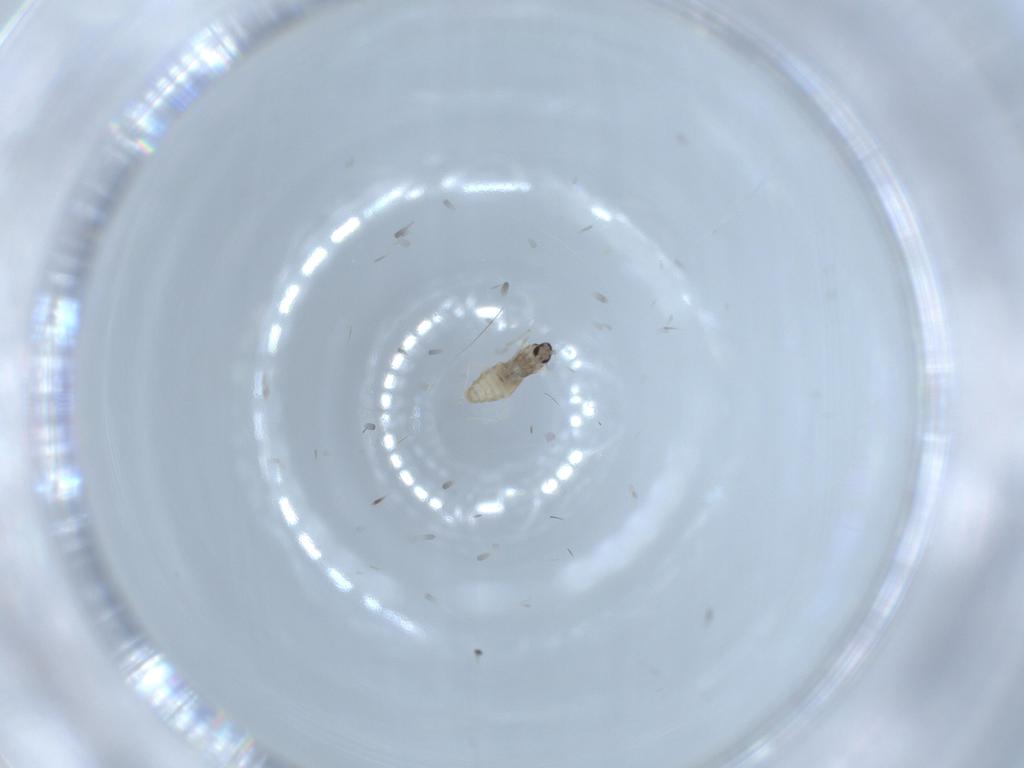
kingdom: Animalia
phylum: Arthropoda
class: Insecta
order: Diptera
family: Cecidomyiidae
